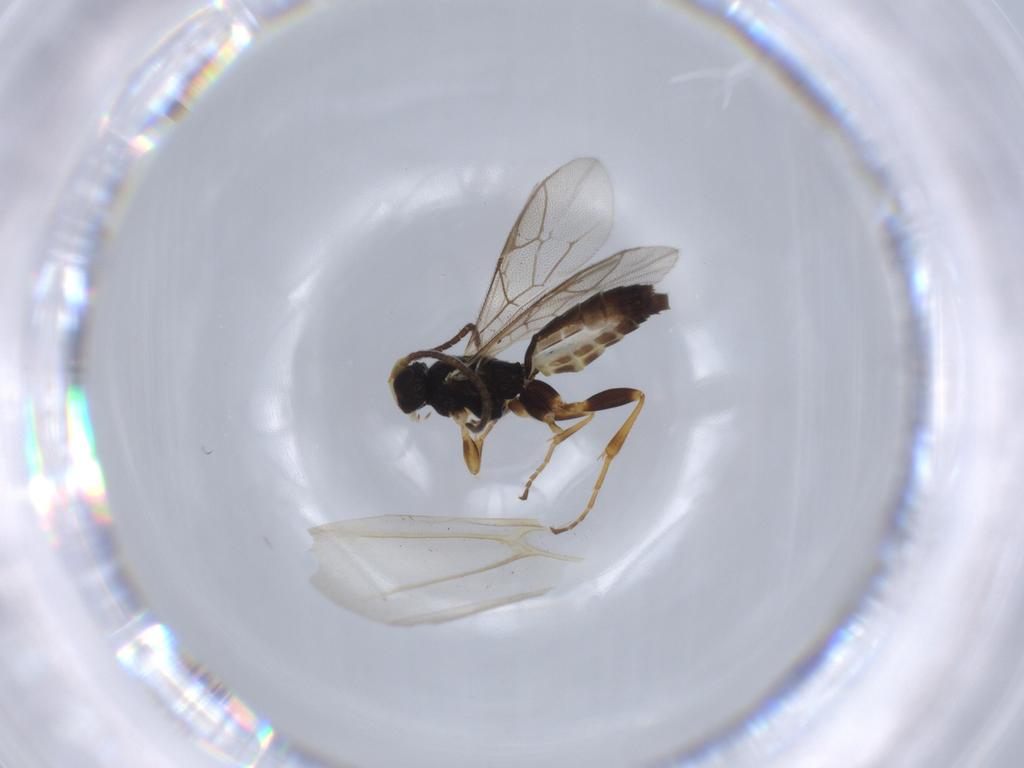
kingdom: Animalia
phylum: Arthropoda
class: Insecta
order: Hymenoptera
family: Ichneumonidae
